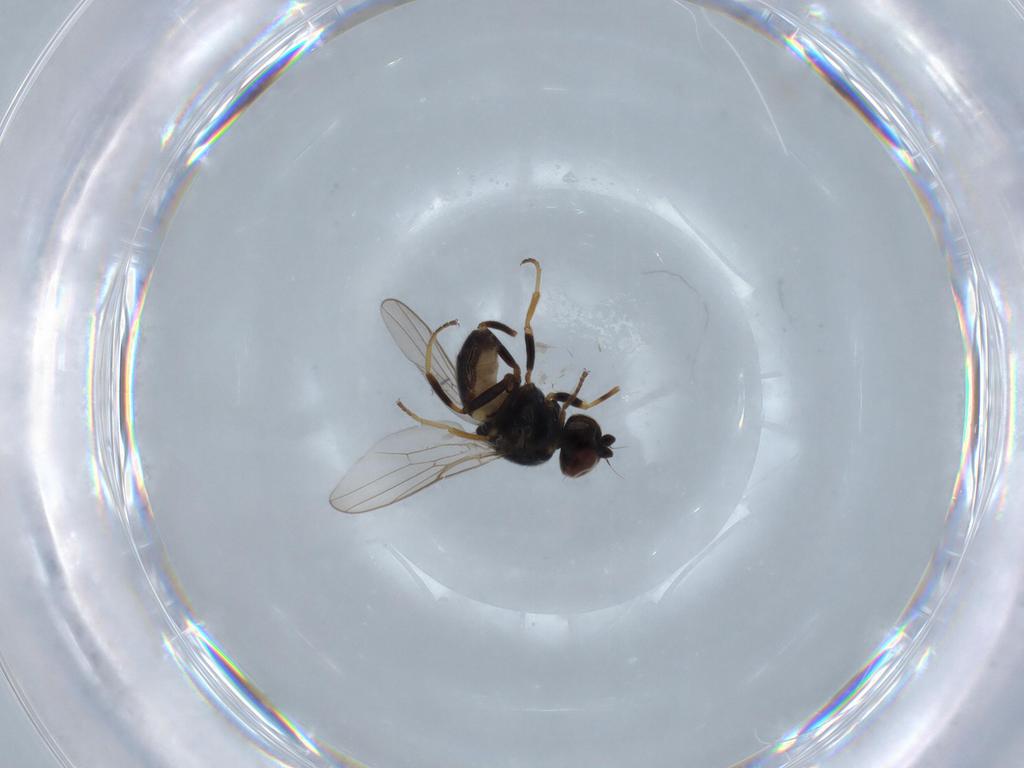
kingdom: Animalia
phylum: Arthropoda
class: Insecta
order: Diptera
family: Chloropidae
